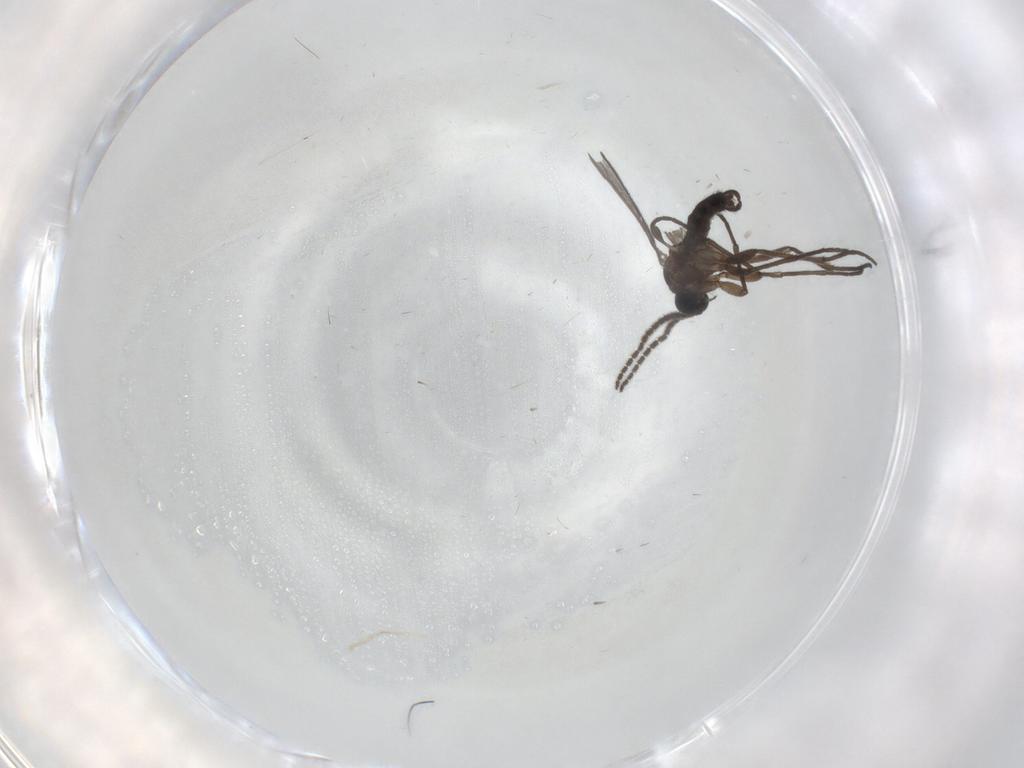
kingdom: Animalia
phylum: Arthropoda
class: Insecta
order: Diptera
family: Sciaridae
